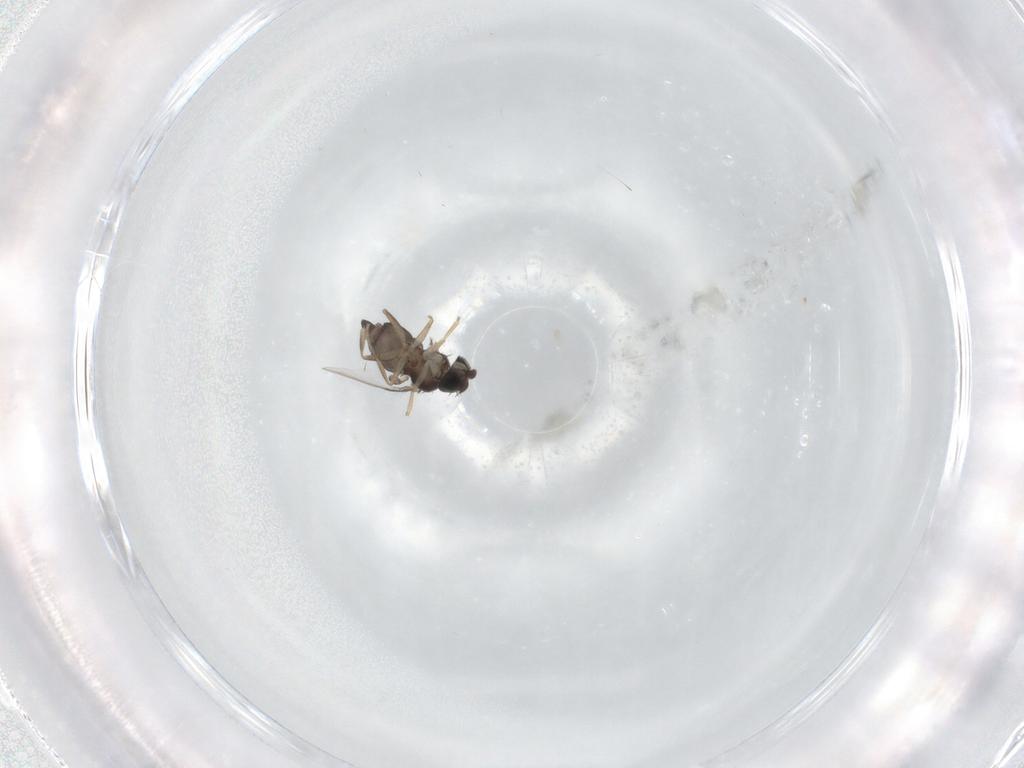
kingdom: Animalia
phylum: Arthropoda
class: Insecta
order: Diptera
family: Phoridae
